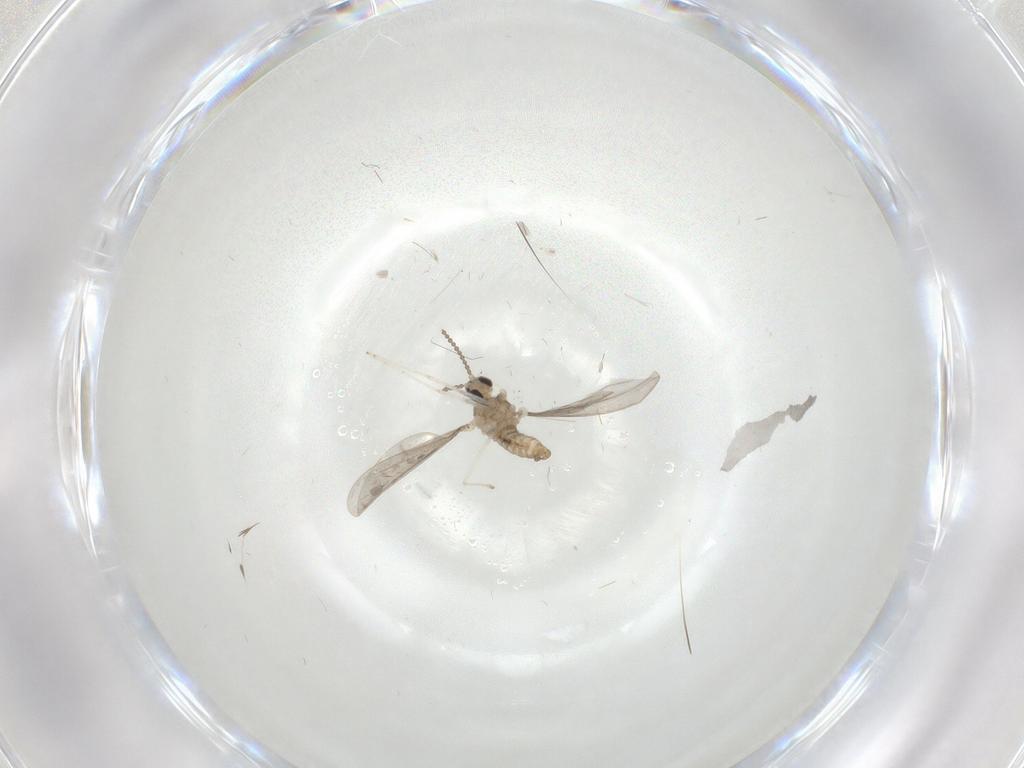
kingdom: Animalia
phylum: Arthropoda
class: Insecta
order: Diptera
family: Cecidomyiidae
